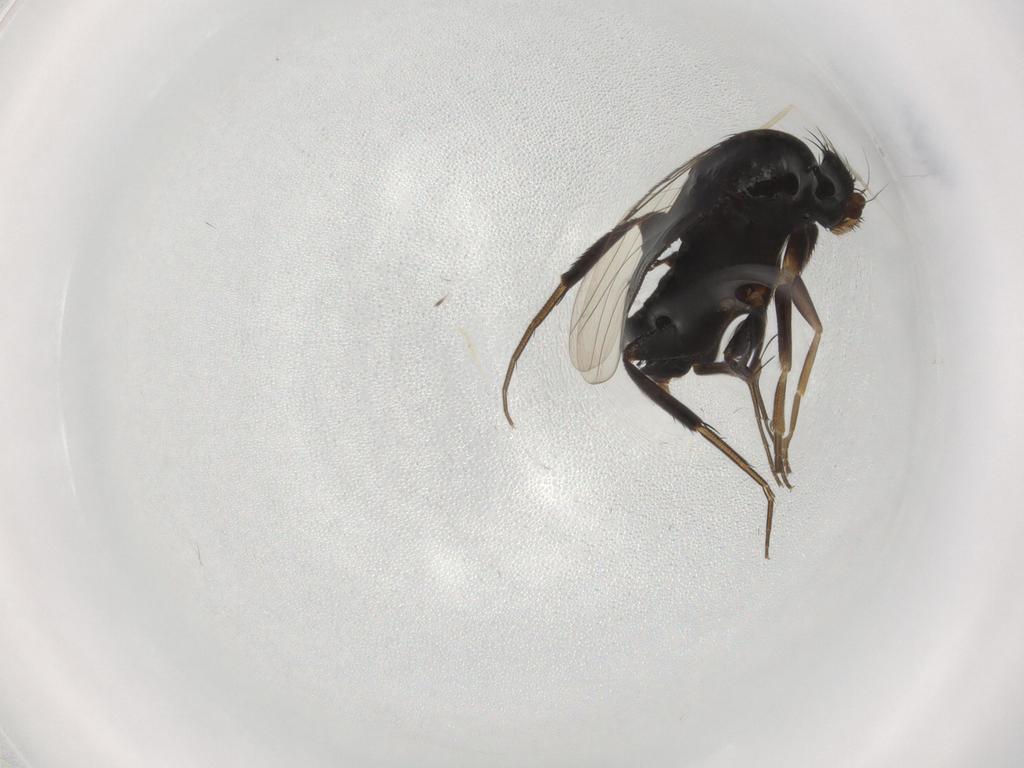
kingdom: Animalia
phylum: Arthropoda
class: Insecta
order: Diptera
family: Phoridae
